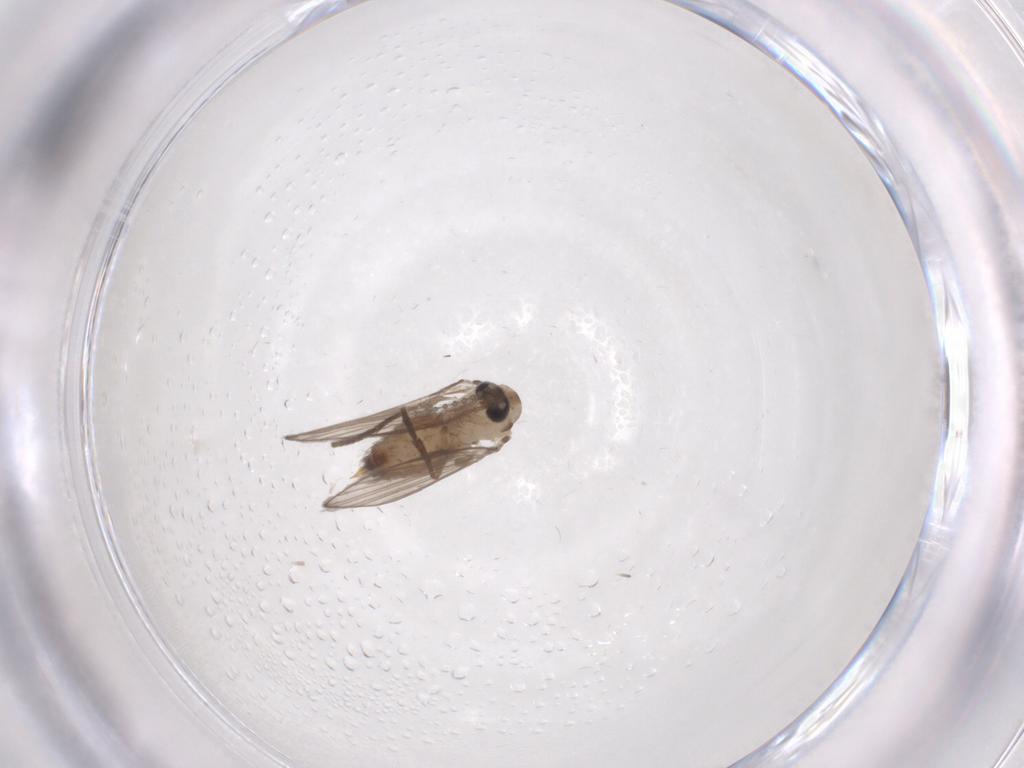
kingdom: Animalia
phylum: Arthropoda
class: Insecta
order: Diptera
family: Psychodidae
